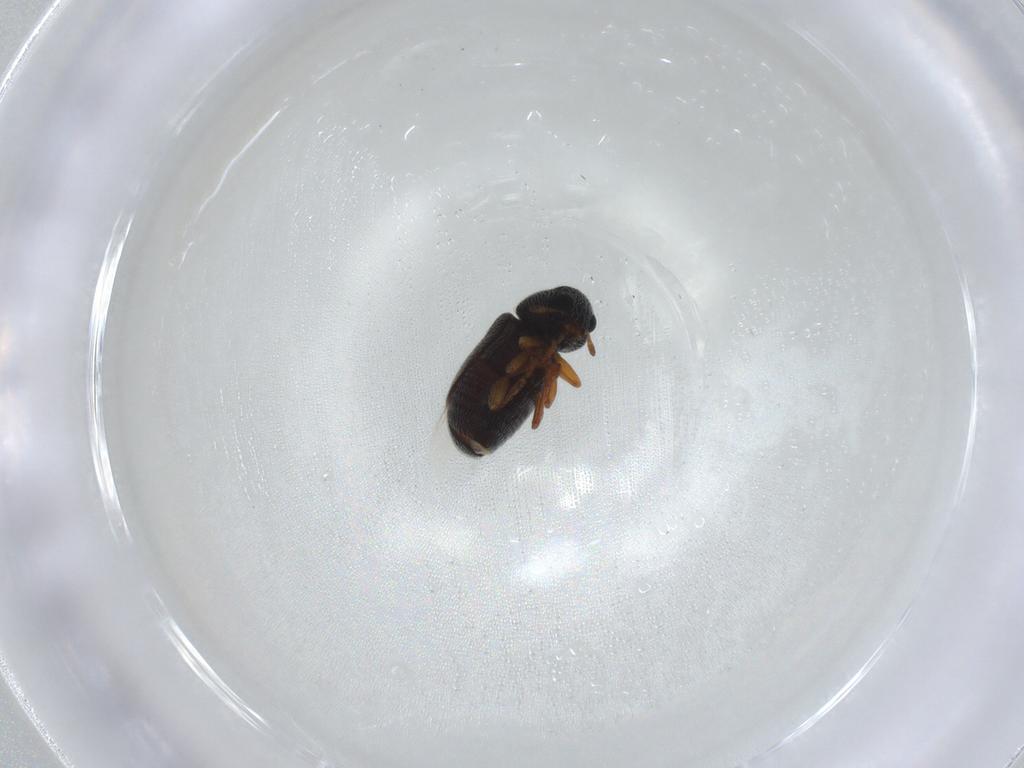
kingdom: Animalia
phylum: Arthropoda
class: Insecta
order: Coleoptera
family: Anthribidae
